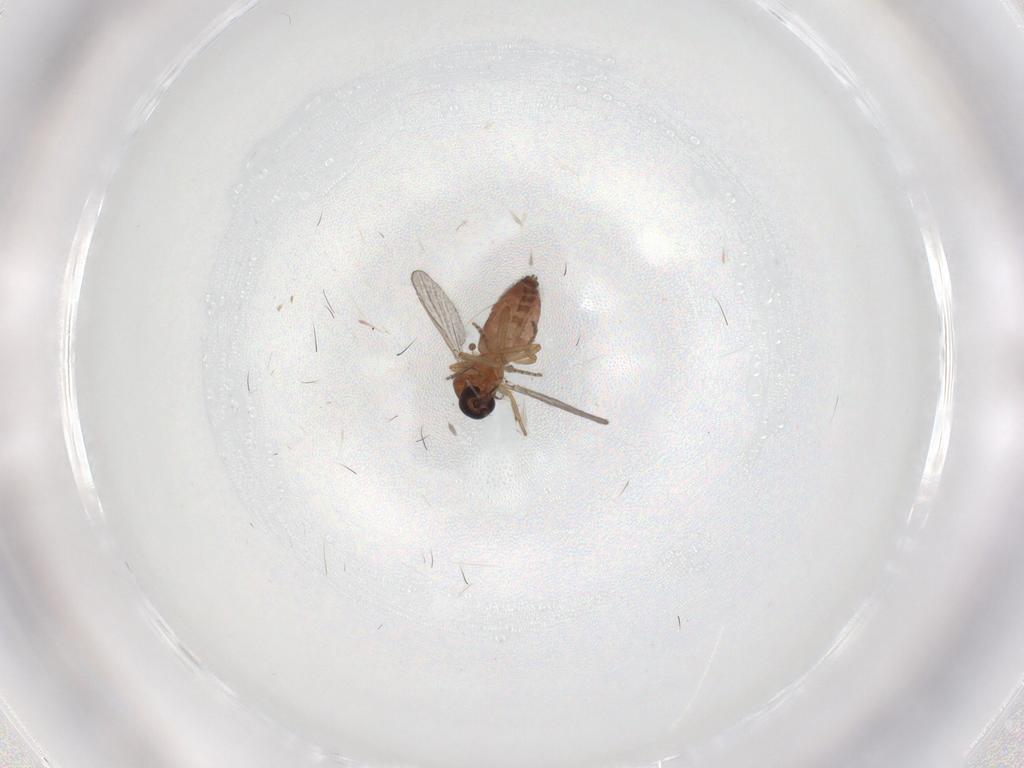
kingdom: Animalia
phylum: Arthropoda
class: Insecta
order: Diptera
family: Ceratopogonidae
